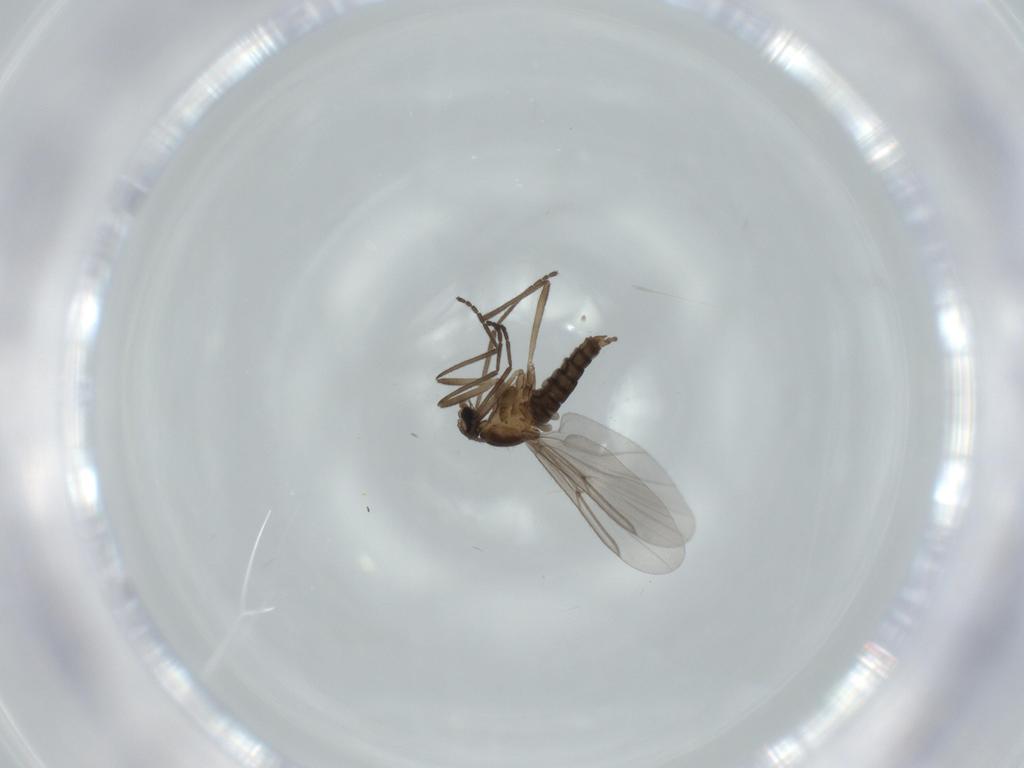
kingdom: Animalia
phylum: Arthropoda
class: Insecta
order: Diptera
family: Cecidomyiidae
